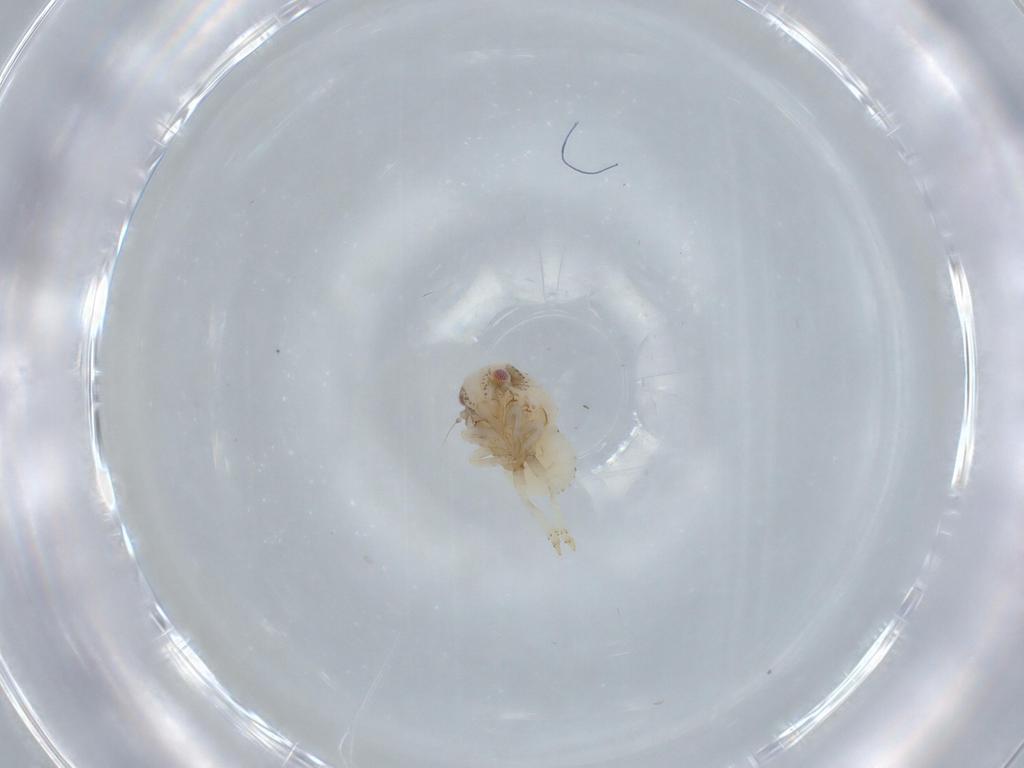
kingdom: Animalia
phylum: Arthropoda
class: Insecta
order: Hemiptera
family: Acanaloniidae
